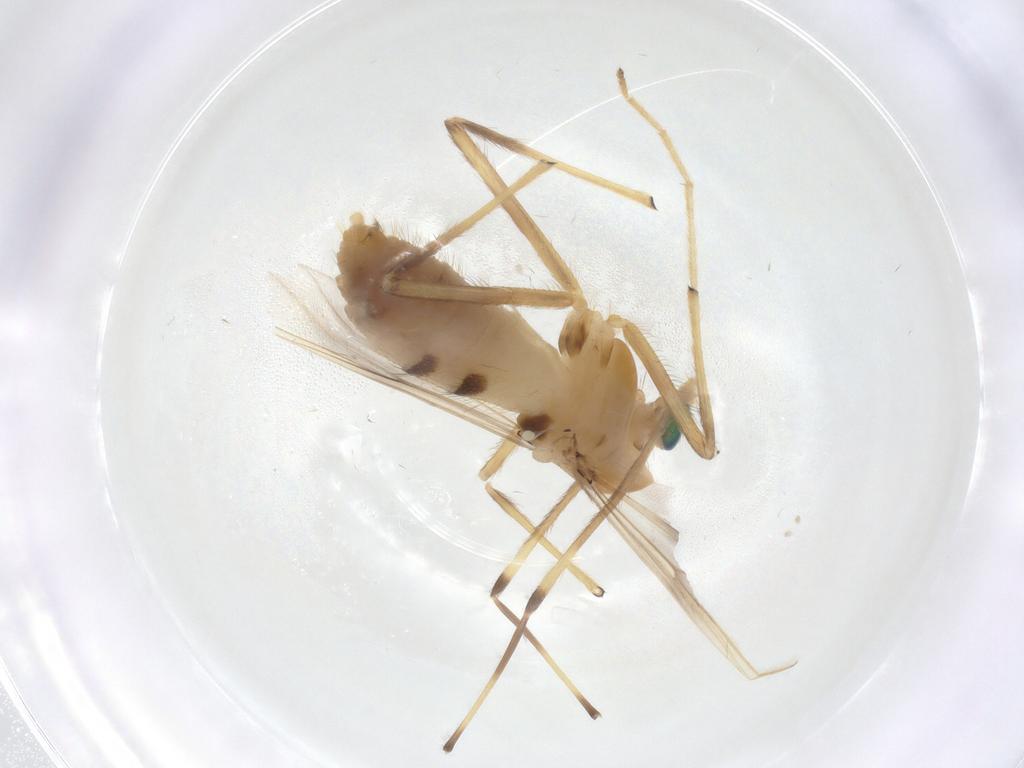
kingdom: Animalia
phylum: Arthropoda
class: Insecta
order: Diptera
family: Chironomidae
